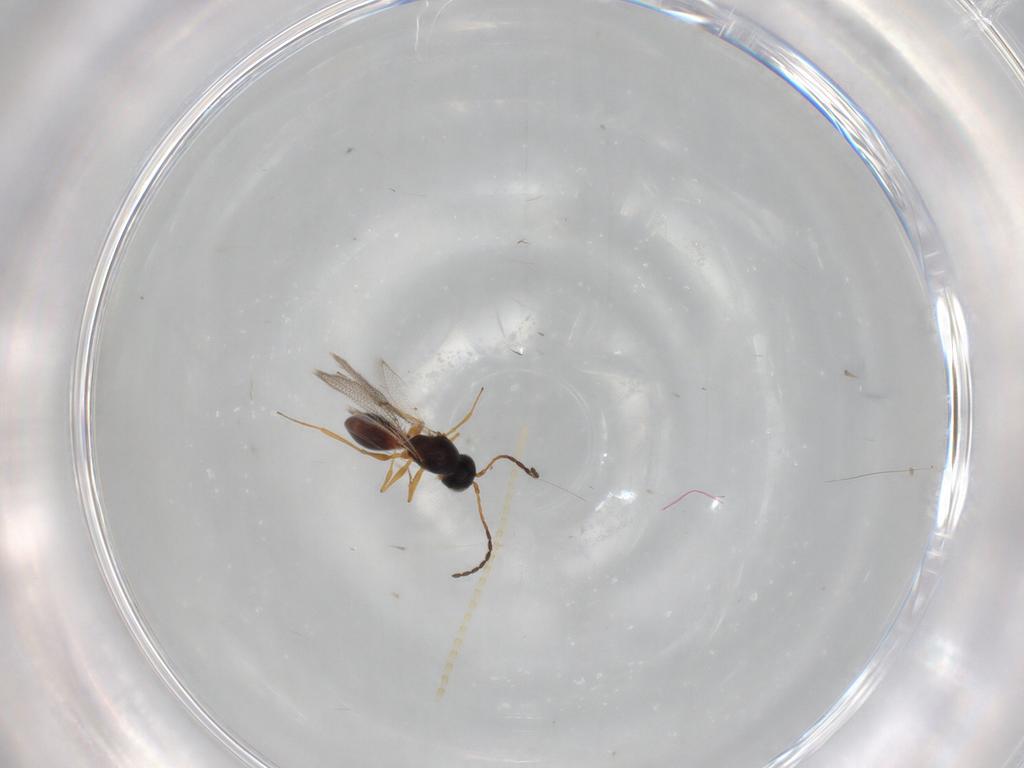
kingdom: Animalia
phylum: Arthropoda
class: Insecta
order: Hymenoptera
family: Figitidae
